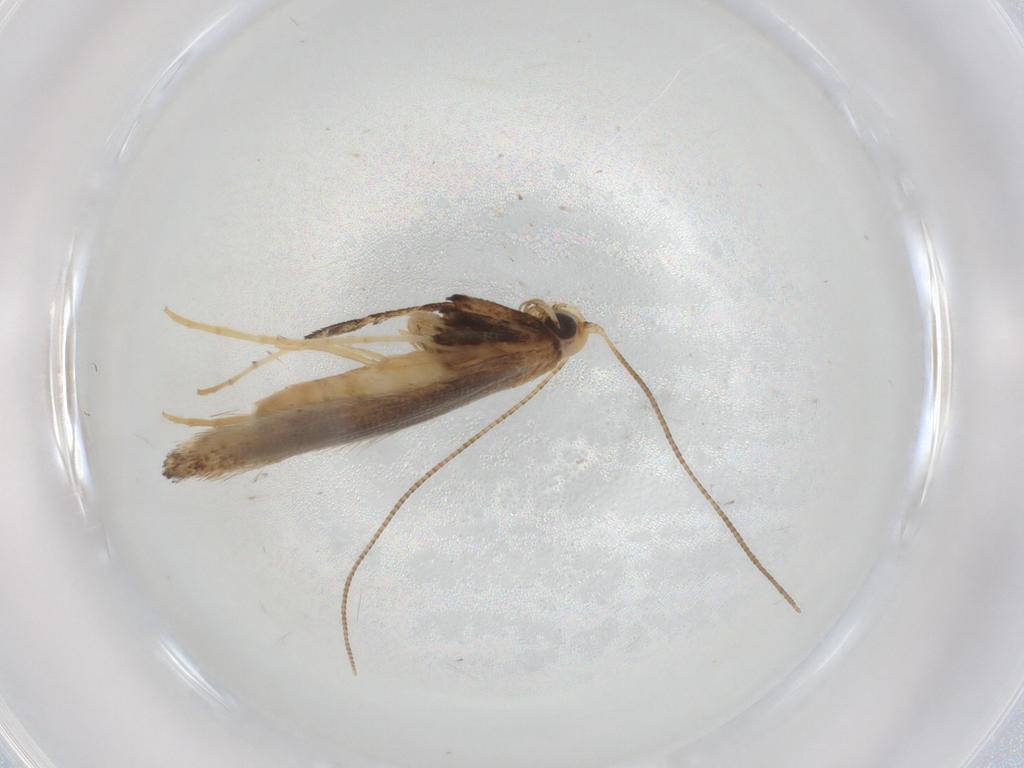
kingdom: Animalia
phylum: Arthropoda
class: Insecta
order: Lepidoptera
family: Gracillariidae
